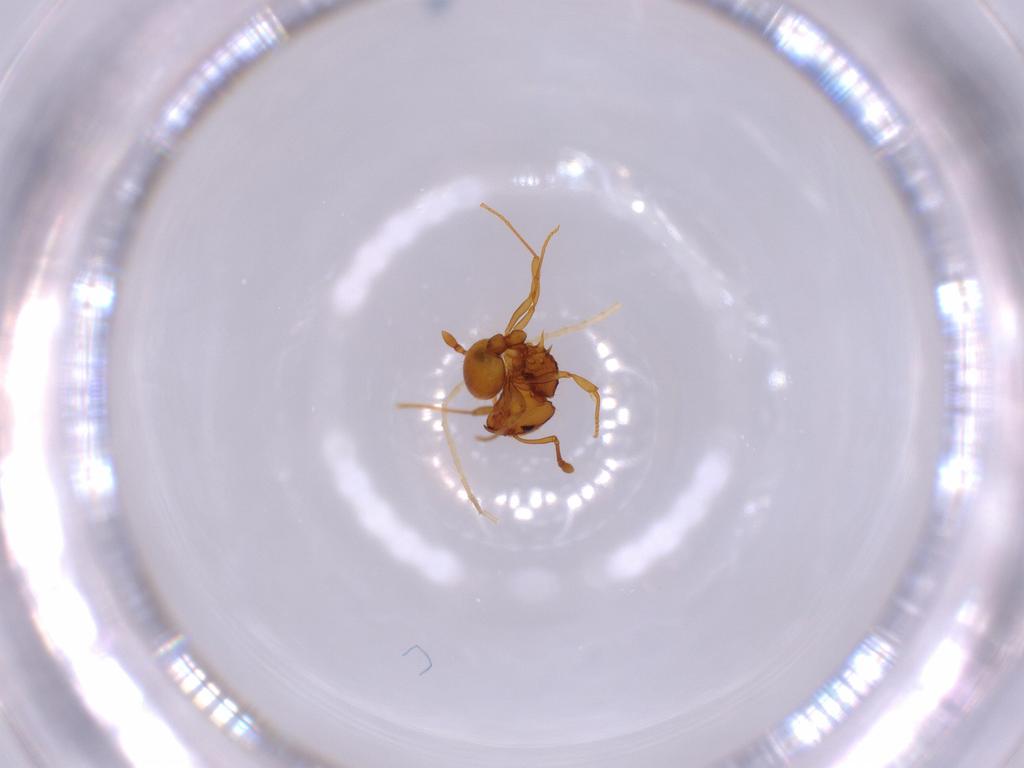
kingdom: Animalia
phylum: Arthropoda
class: Insecta
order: Hymenoptera
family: Formicidae
